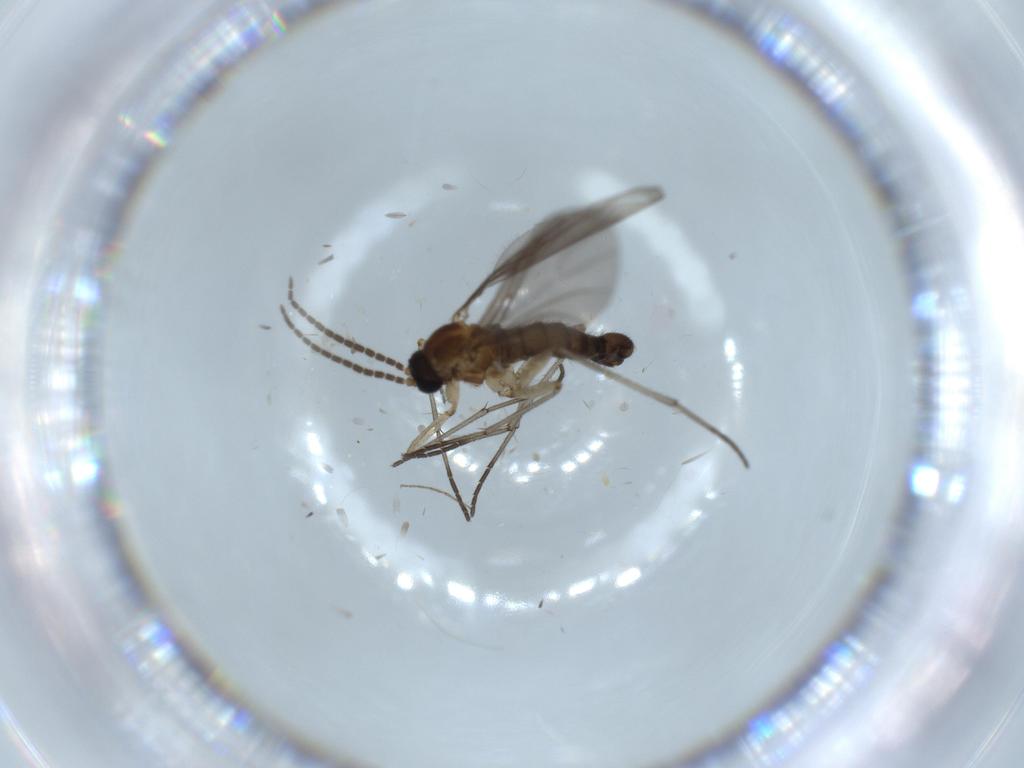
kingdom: Animalia
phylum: Arthropoda
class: Insecta
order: Diptera
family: Sciaridae
